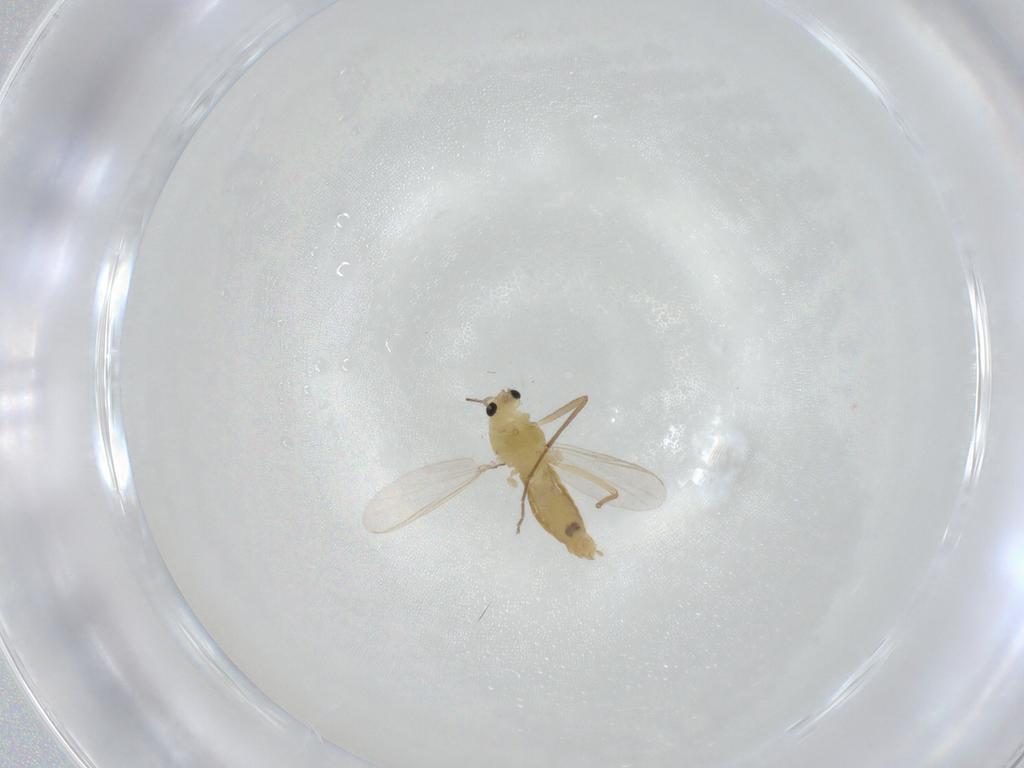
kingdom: Animalia
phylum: Arthropoda
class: Insecta
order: Diptera
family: Chironomidae
